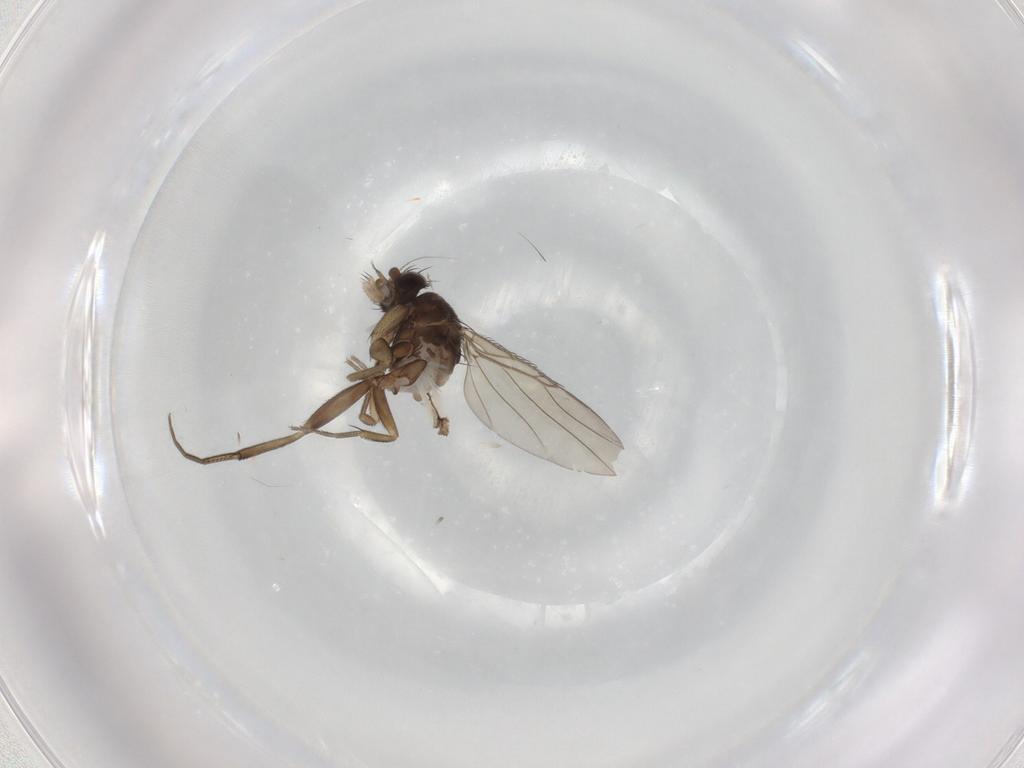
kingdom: Animalia
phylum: Arthropoda
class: Insecta
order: Diptera
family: Phoridae
